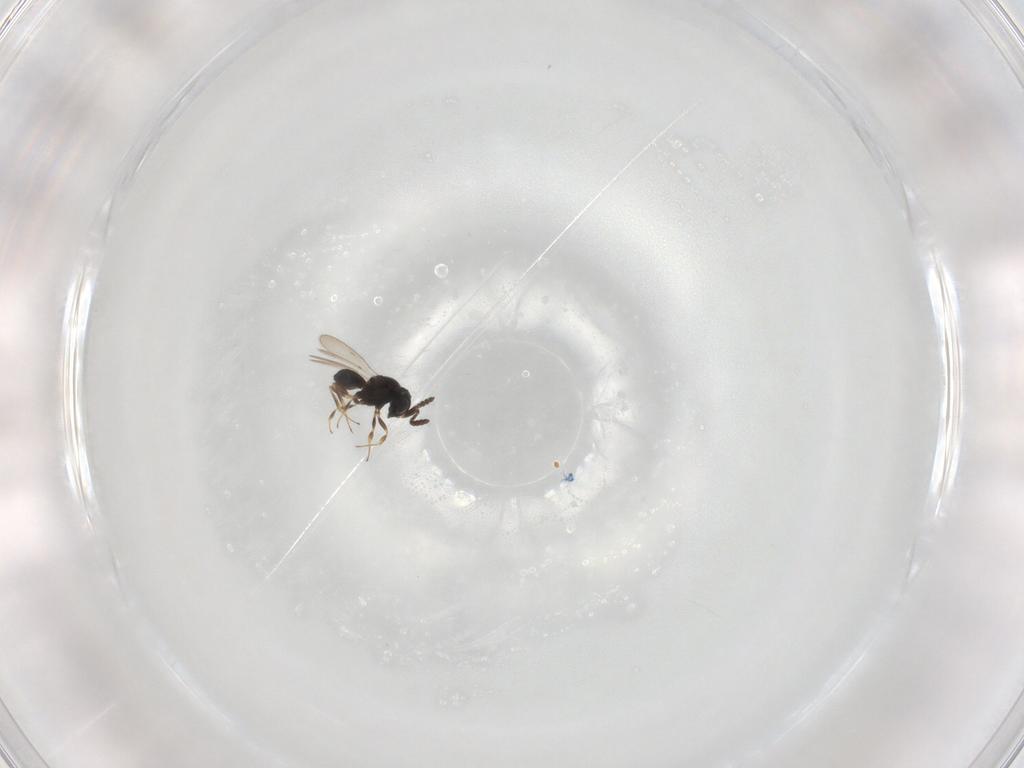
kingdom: Animalia
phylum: Arthropoda
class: Insecta
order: Hymenoptera
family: Scelionidae
